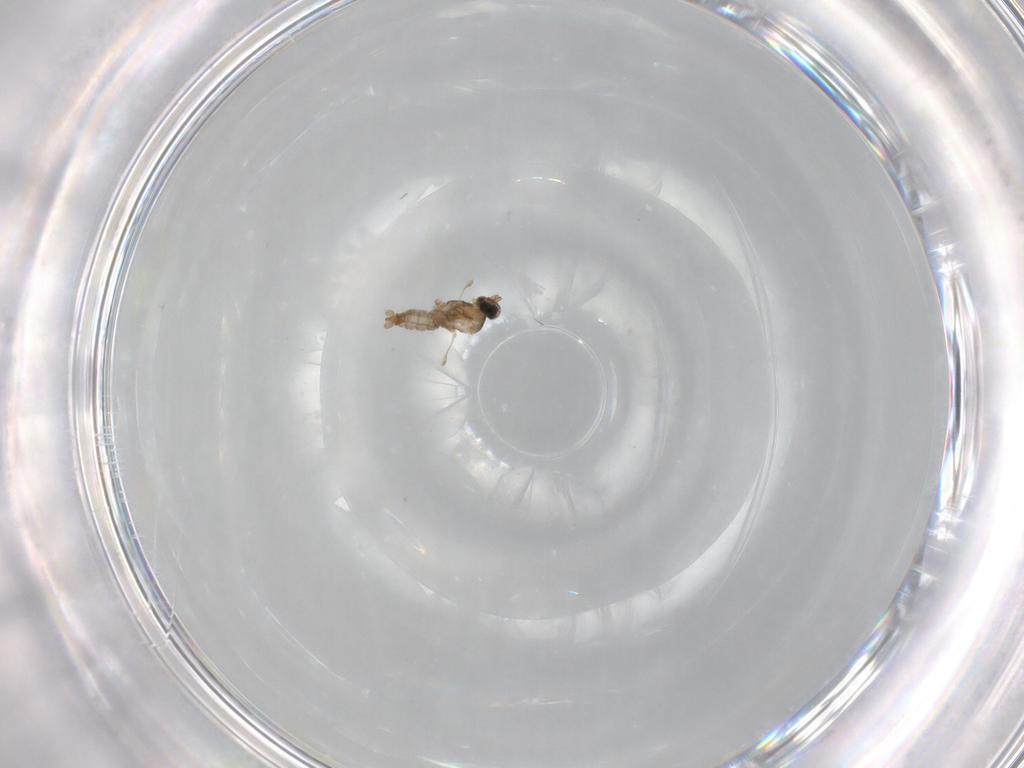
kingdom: Animalia
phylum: Arthropoda
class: Insecta
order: Diptera
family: Cecidomyiidae
